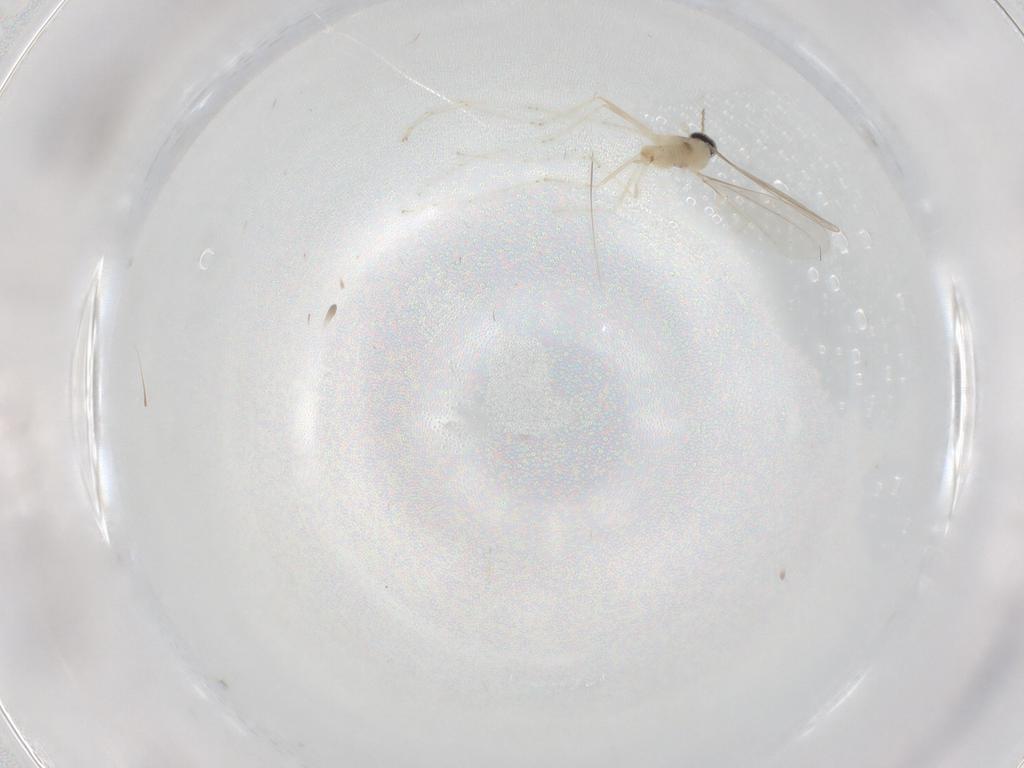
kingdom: Animalia
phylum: Arthropoda
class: Insecta
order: Diptera
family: Cecidomyiidae
